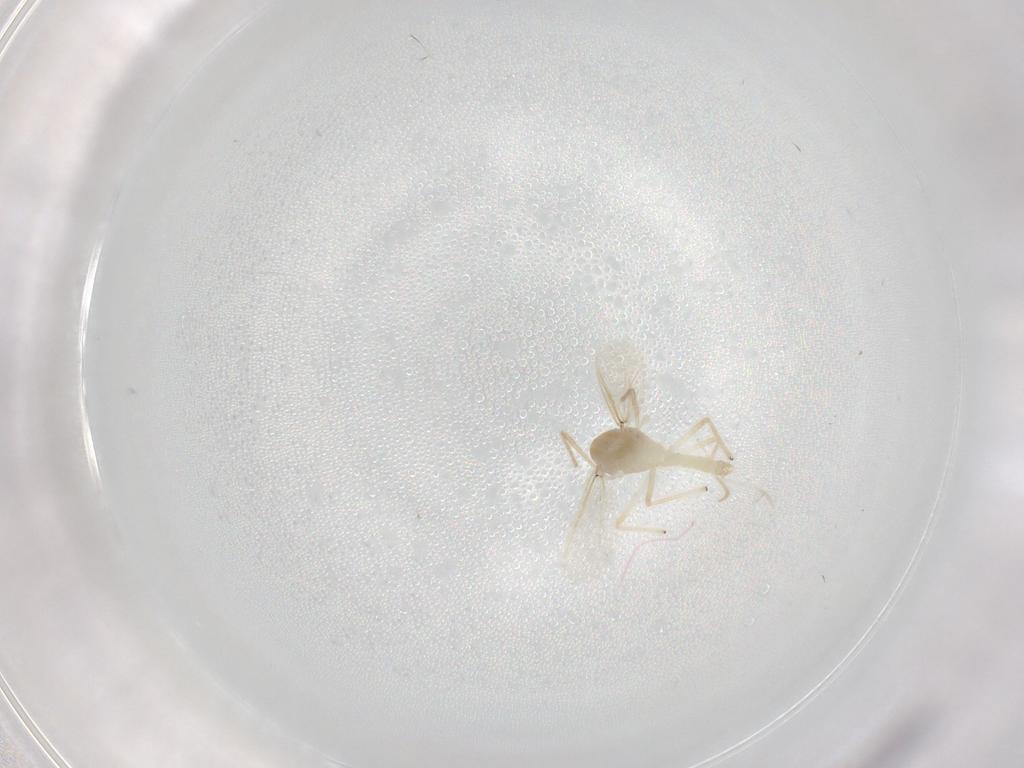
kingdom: Animalia
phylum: Arthropoda
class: Insecta
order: Diptera
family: Chironomidae
